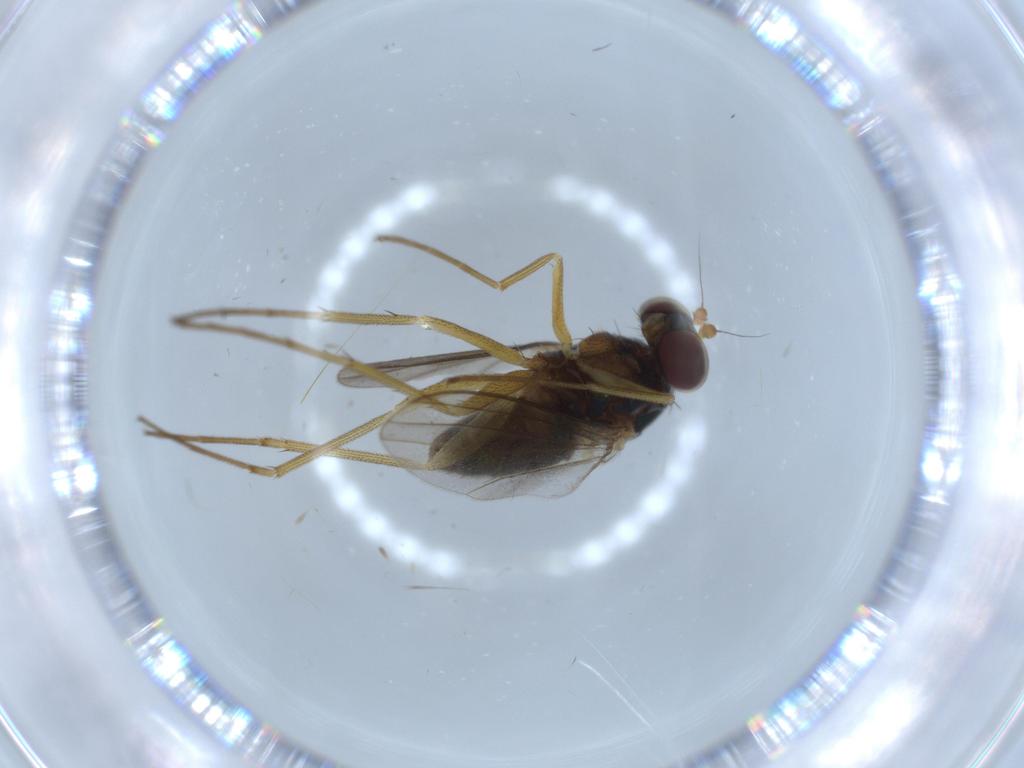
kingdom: Animalia
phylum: Arthropoda
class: Insecta
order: Diptera
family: Dolichopodidae
